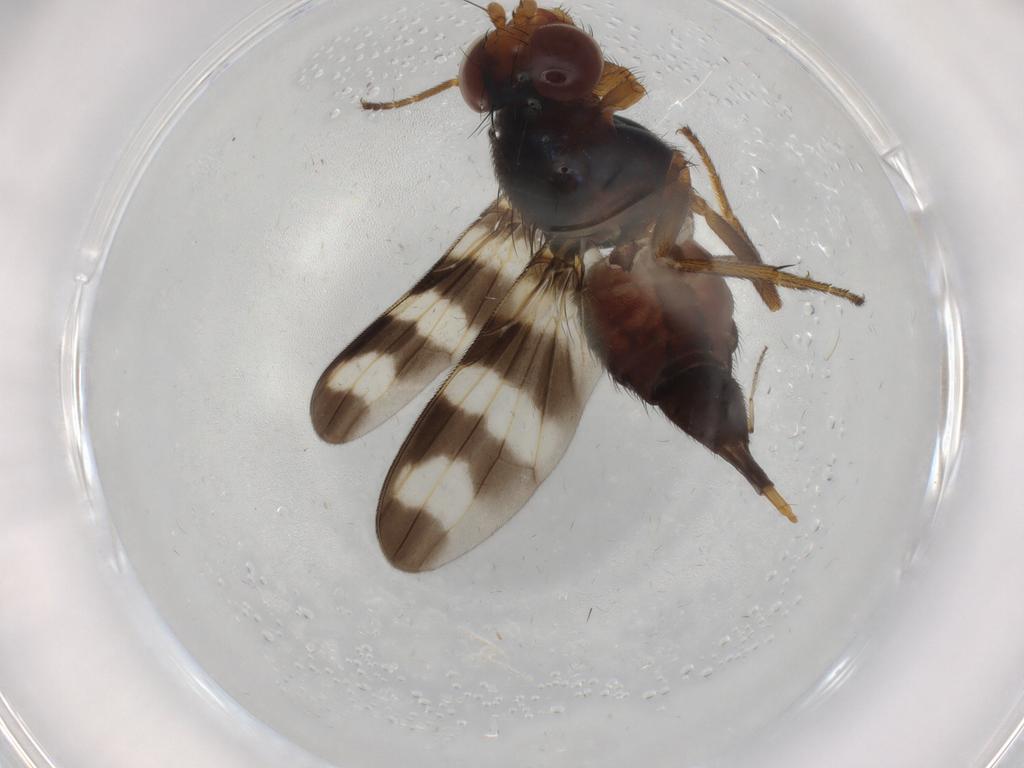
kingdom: Animalia
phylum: Arthropoda
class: Insecta
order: Diptera
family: Ulidiidae
